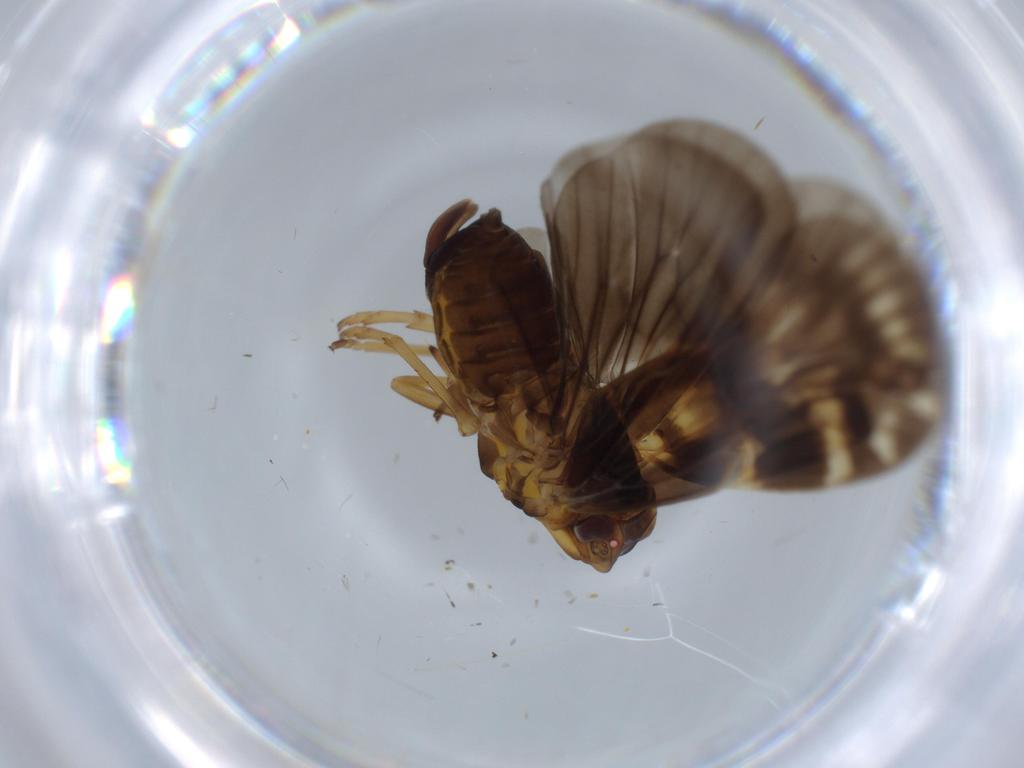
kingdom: Animalia
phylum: Arthropoda
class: Insecta
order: Hemiptera
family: Cixiidae
